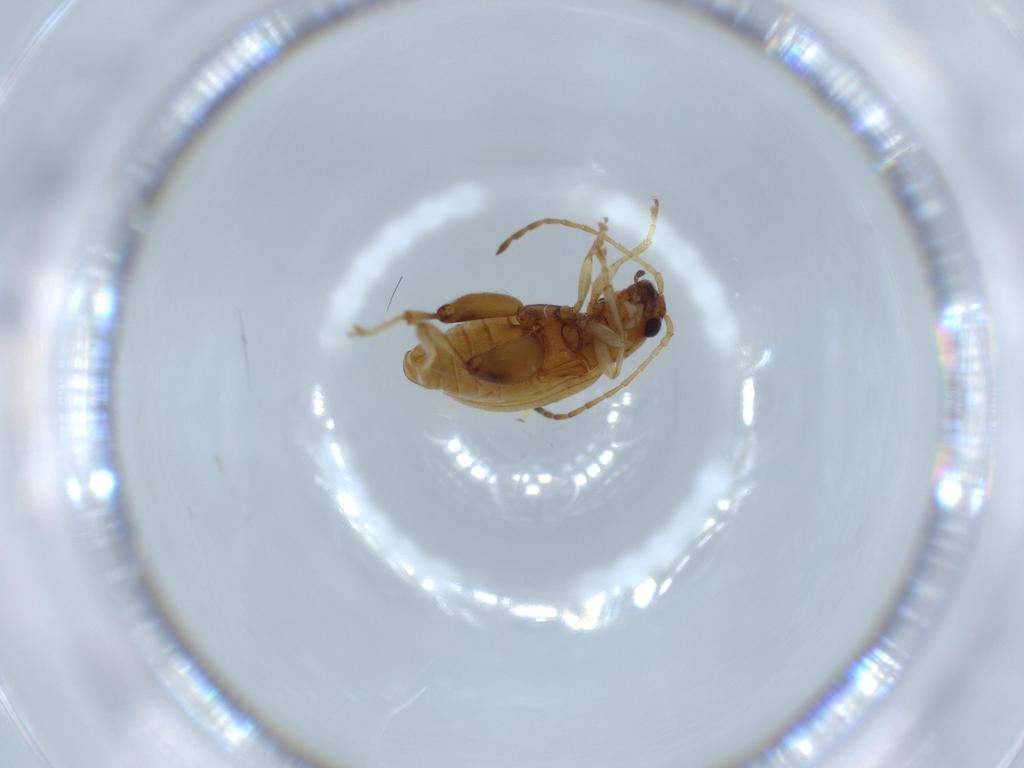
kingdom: Animalia
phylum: Arthropoda
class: Insecta
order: Coleoptera
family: Chrysomelidae
